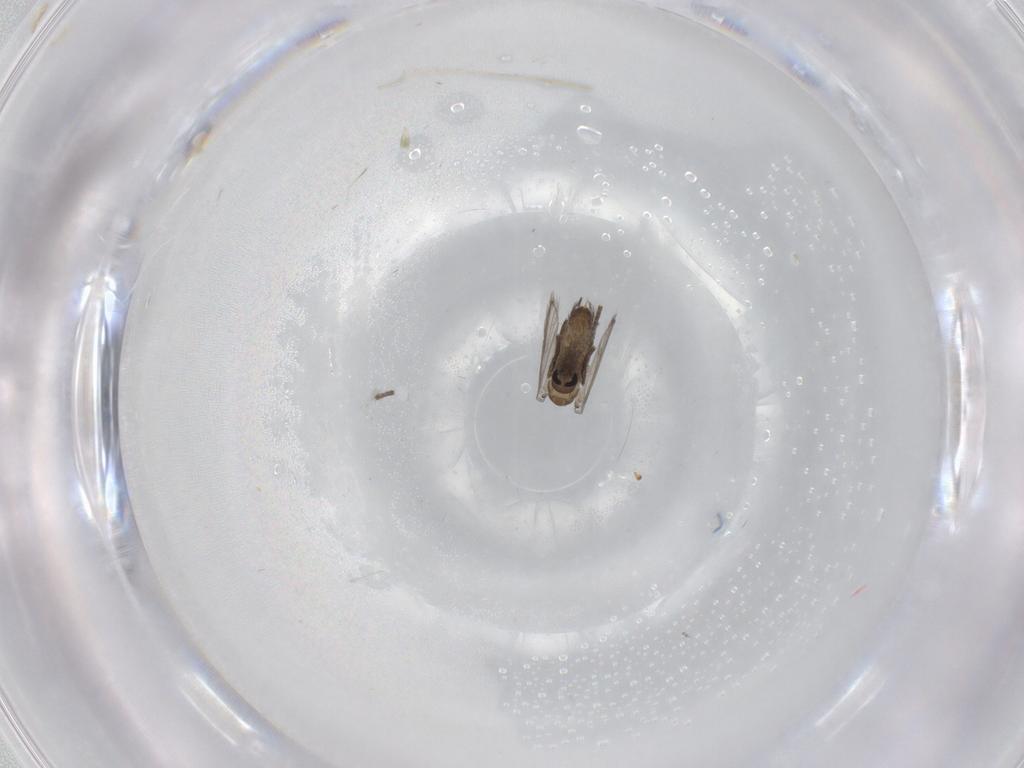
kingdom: Animalia
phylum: Arthropoda
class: Insecta
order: Diptera
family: Psychodidae
